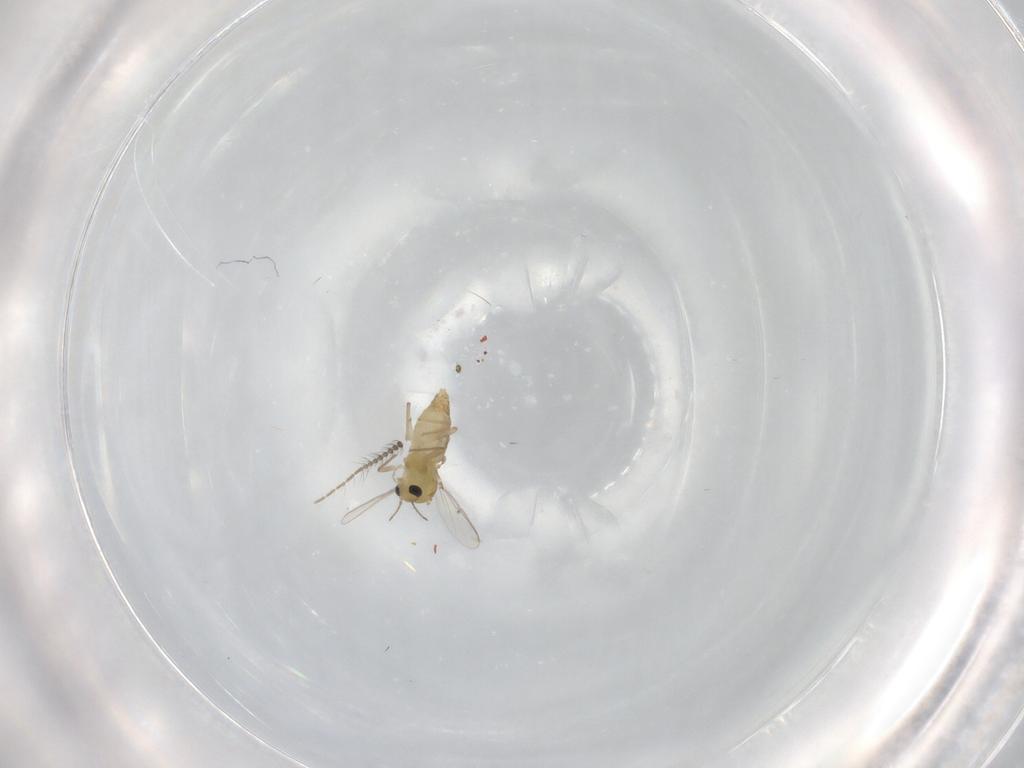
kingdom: Animalia
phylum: Arthropoda
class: Insecta
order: Diptera
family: Chironomidae
